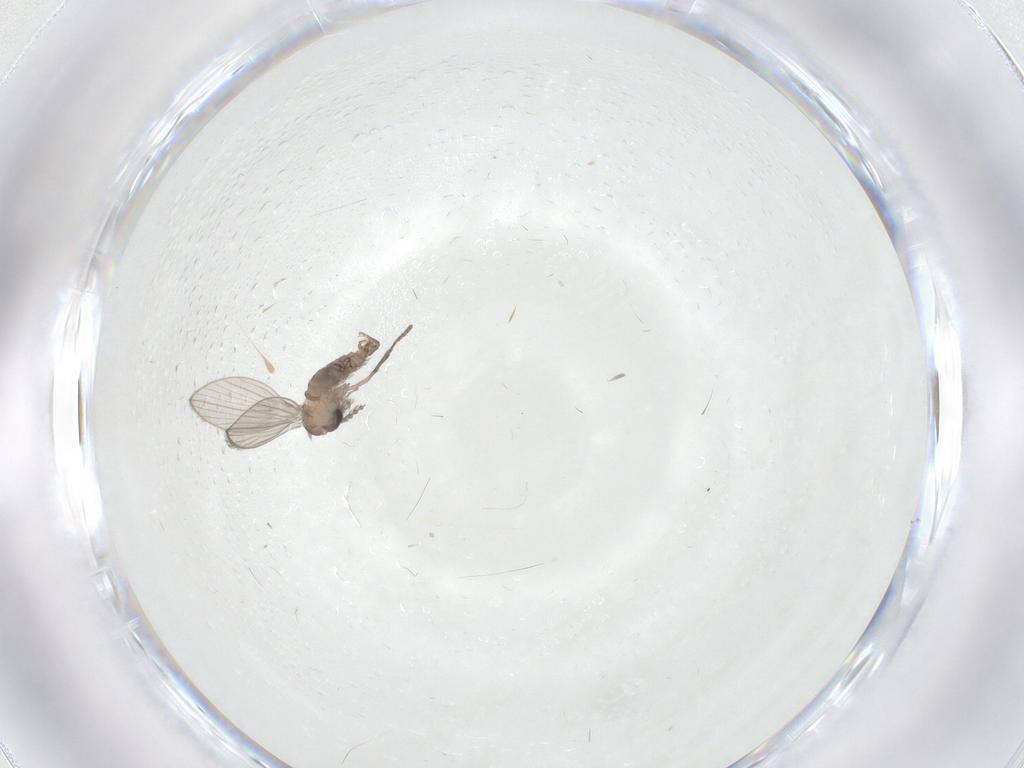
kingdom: Animalia
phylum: Arthropoda
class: Insecta
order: Diptera
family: Psychodidae
